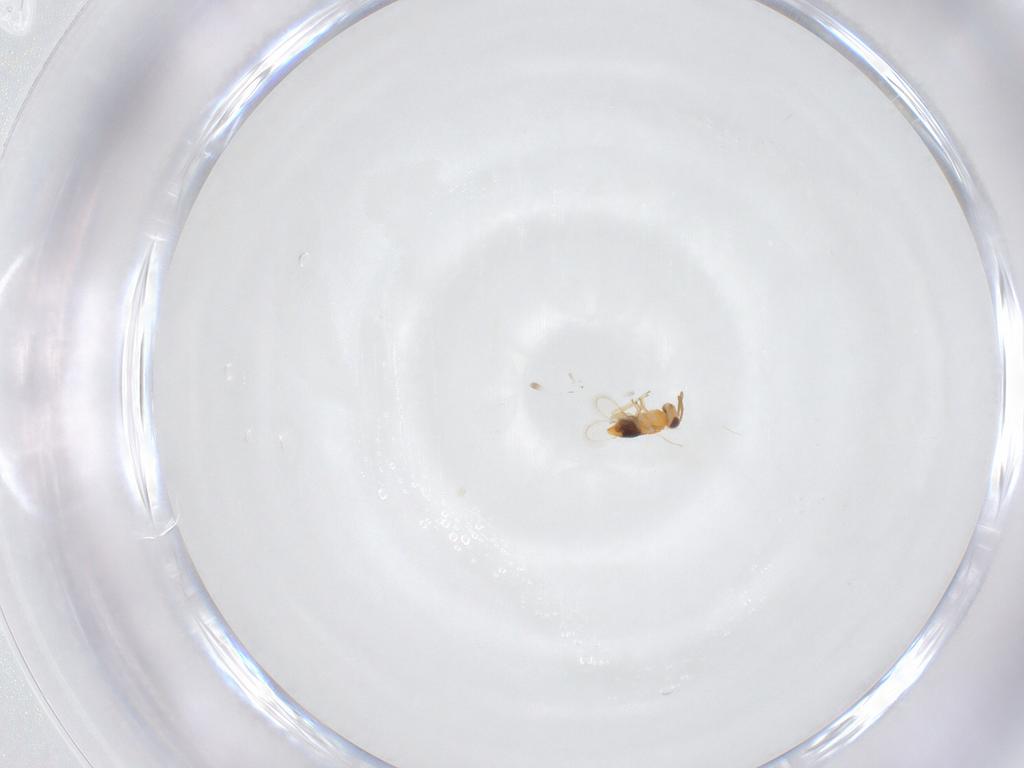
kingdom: Animalia
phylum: Arthropoda
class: Insecta
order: Hymenoptera
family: Aphelinidae
